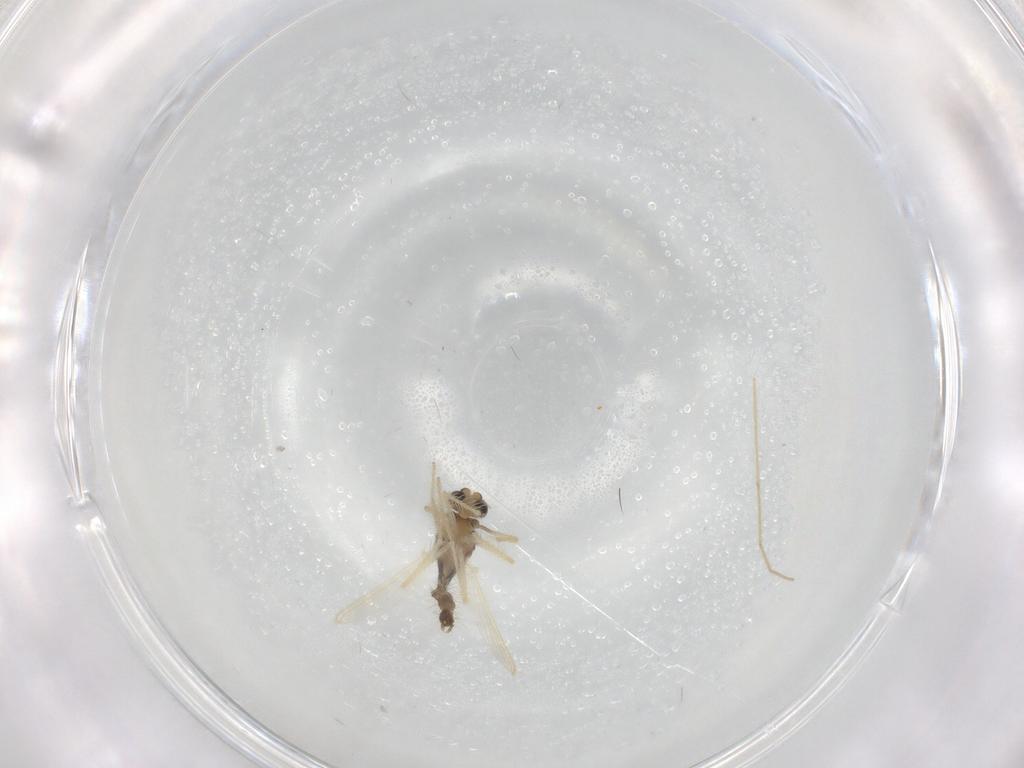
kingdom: Animalia
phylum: Arthropoda
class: Insecta
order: Diptera
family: Chironomidae
